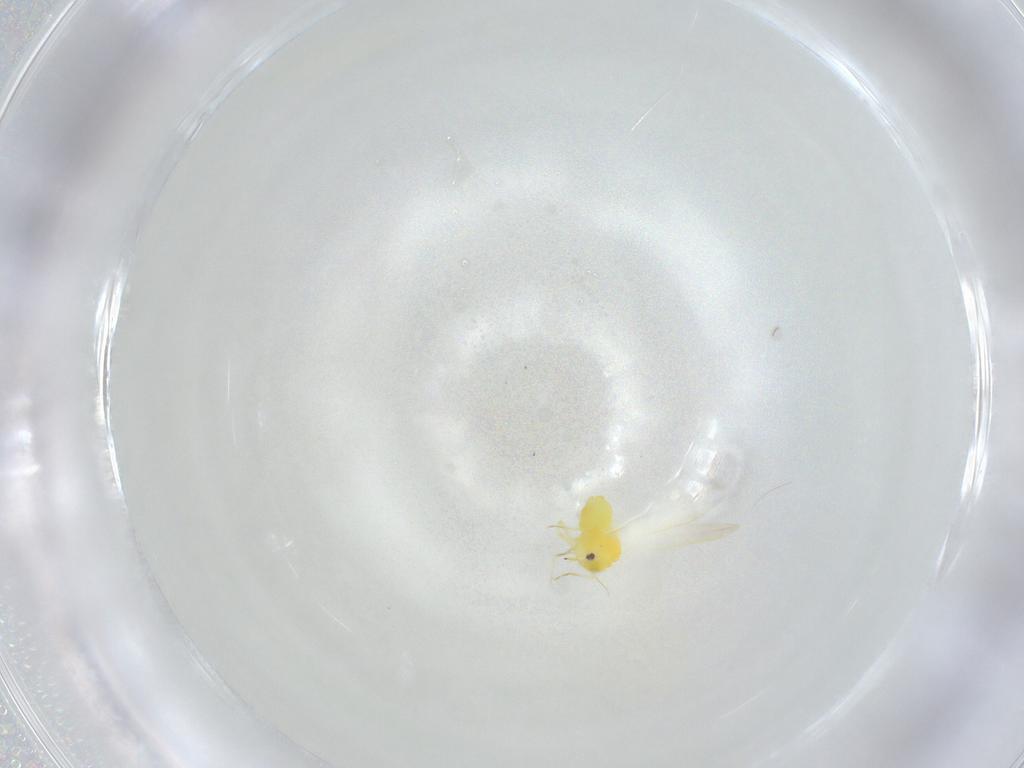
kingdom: Animalia
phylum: Arthropoda
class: Insecta
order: Hemiptera
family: Aleyrodidae
